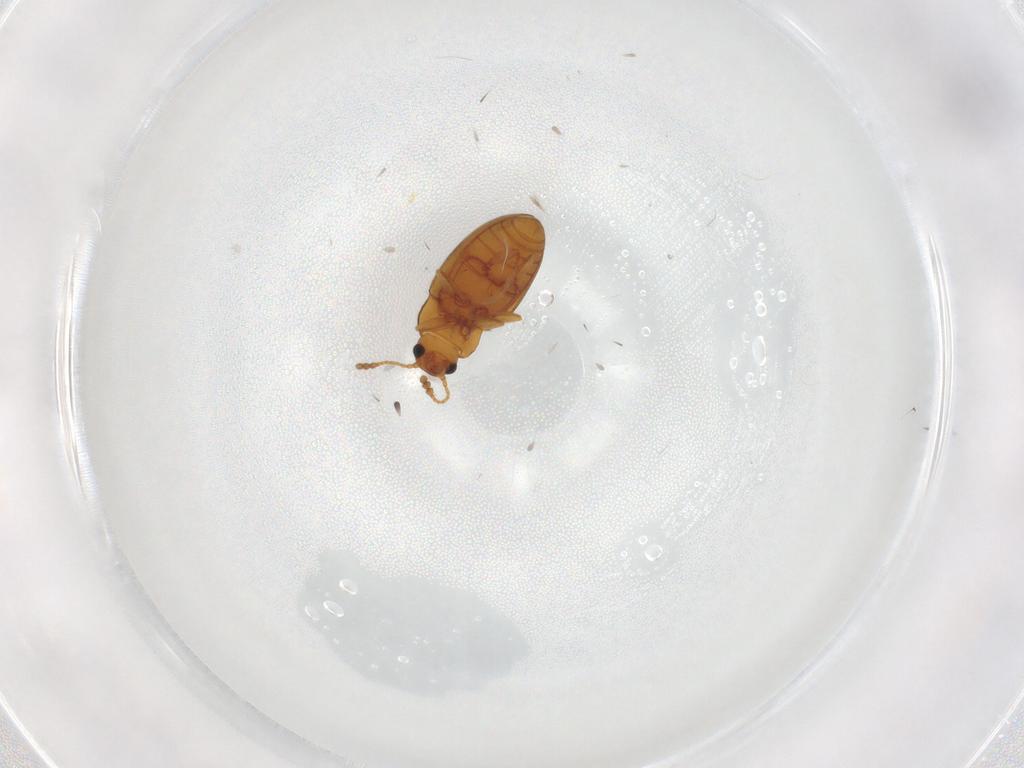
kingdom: Animalia
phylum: Arthropoda
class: Insecta
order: Coleoptera
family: Erotylidae
